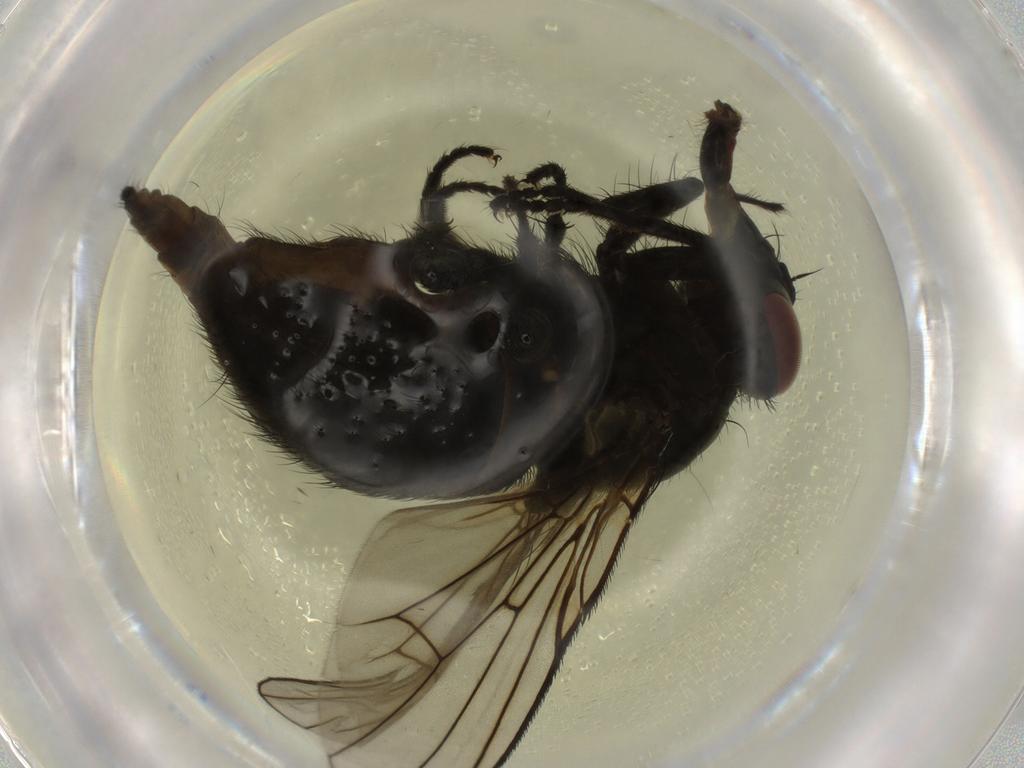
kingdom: Animalia
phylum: Arthropoda
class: Insecta
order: Diptera
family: Muscidae
